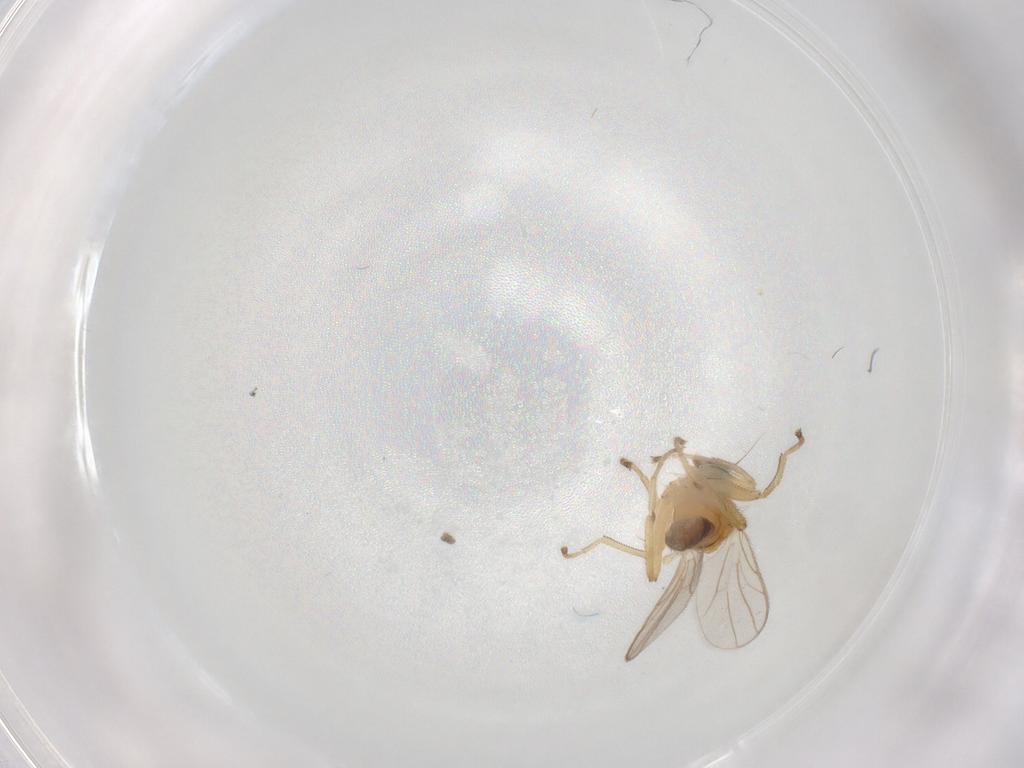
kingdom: Animalia
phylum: Arthropoda
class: Insecta
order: Diptera
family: Hybotidae
